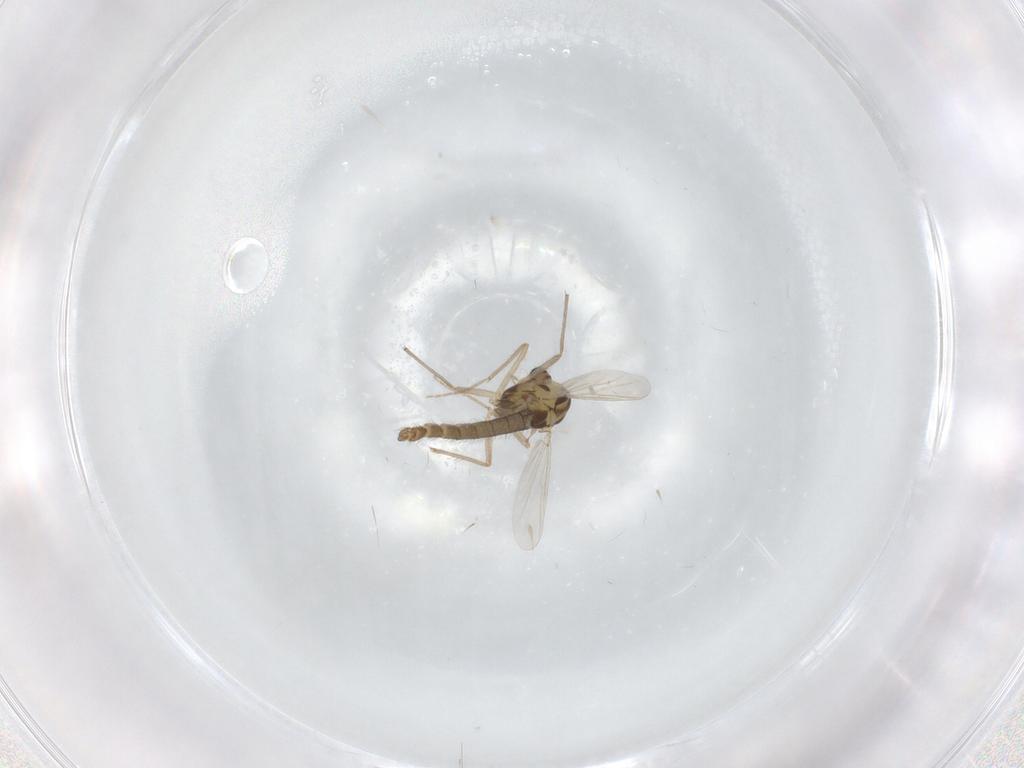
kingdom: Animalia
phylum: Arthropoda
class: Insecta
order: Diptera
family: Chironomidae
